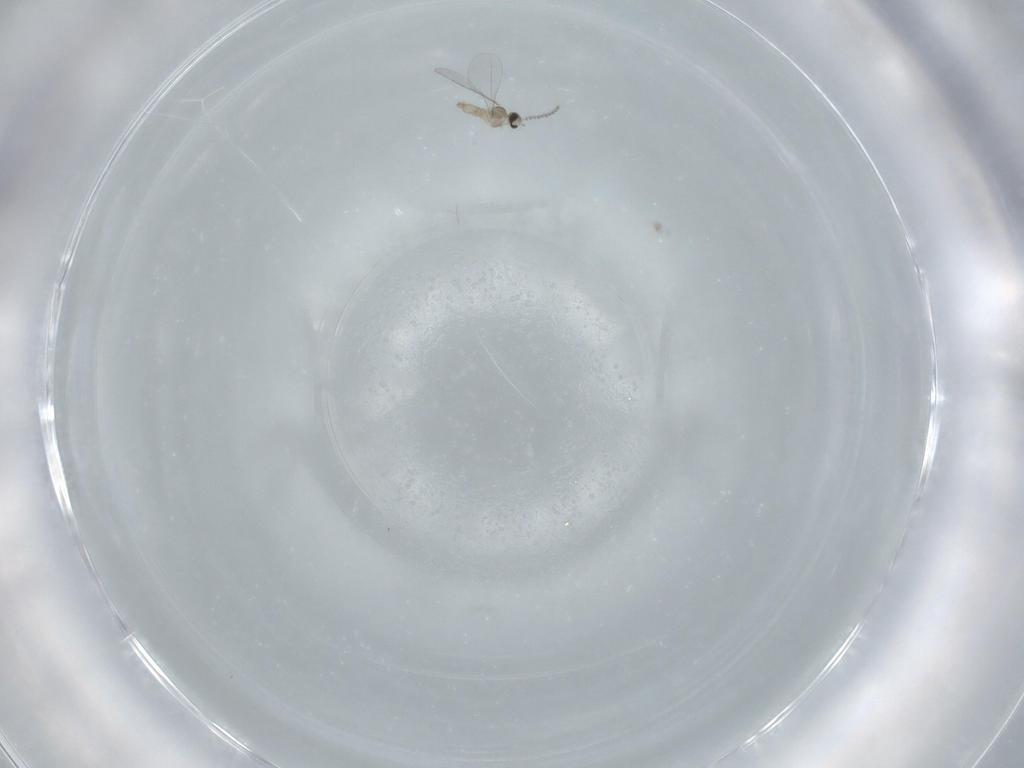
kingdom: Animalia
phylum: Arthropoda
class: Insecta
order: Diptera
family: Cecidomyiidae
